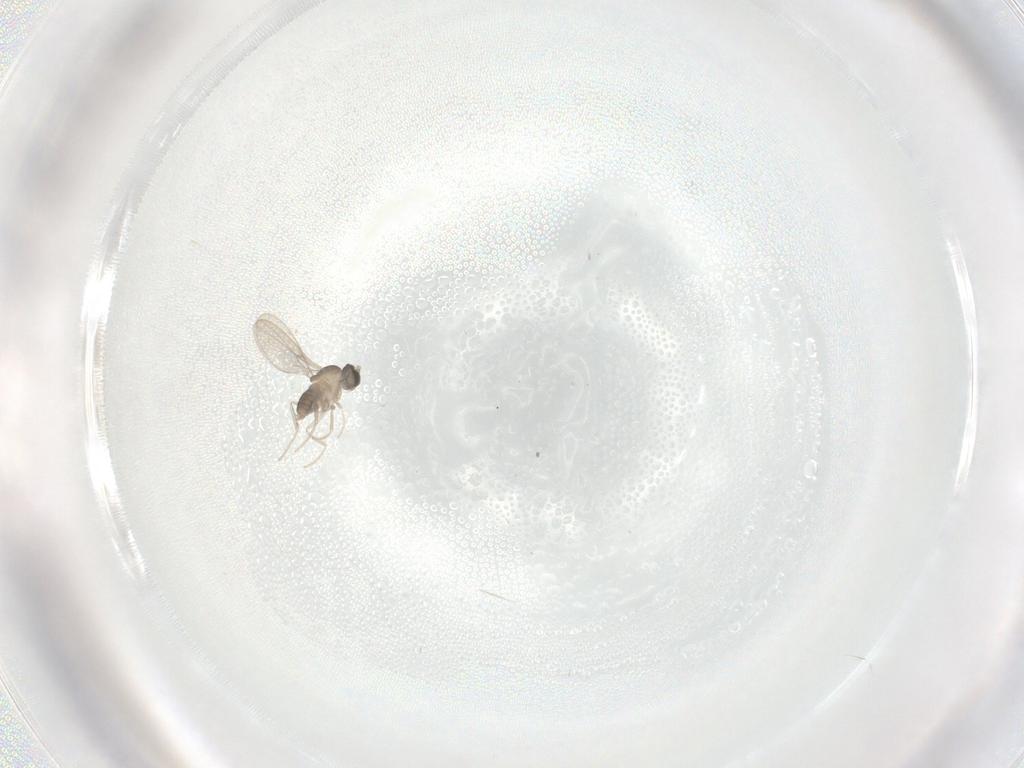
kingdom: Animalia
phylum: Arthropoda
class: Insecta
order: Diptera
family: Cecidomyiidae
